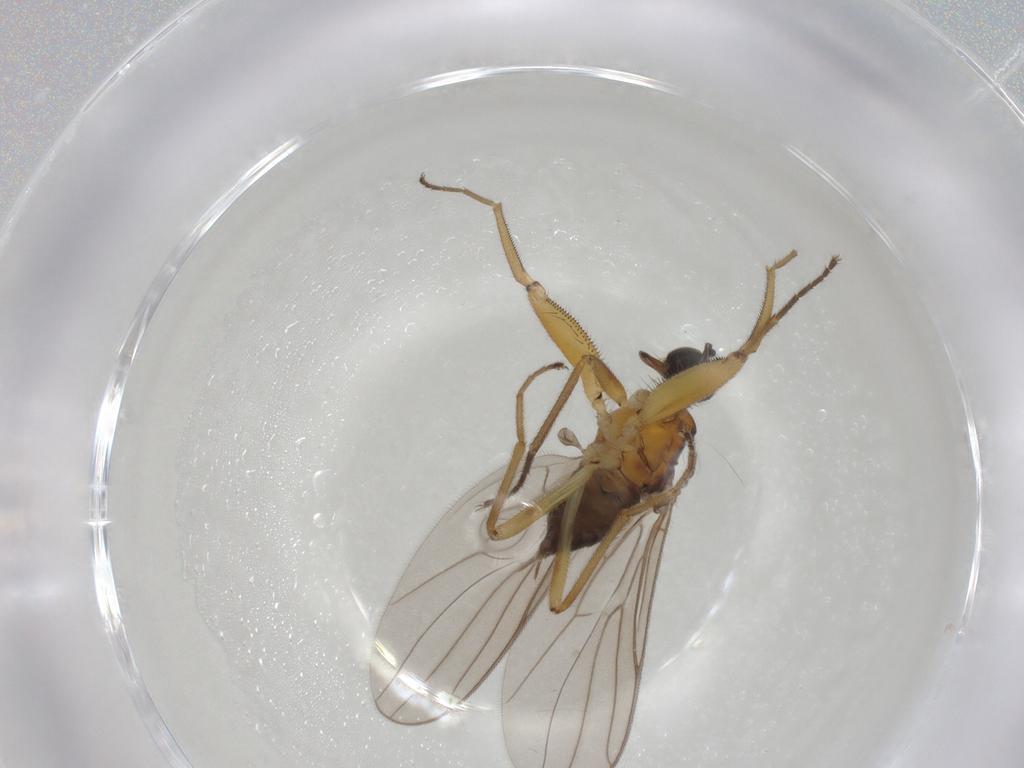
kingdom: Animalia
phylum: Arthropoda
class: Insecta
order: Diptera
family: Hybotidae
